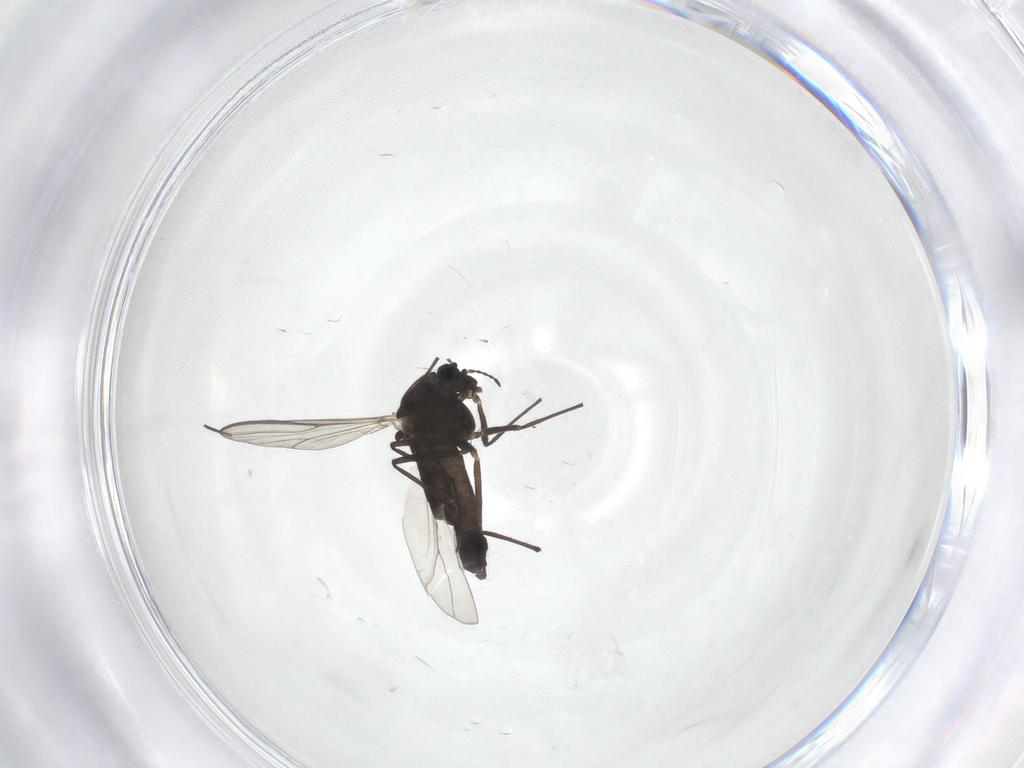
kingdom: Animalia
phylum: Arthropoda
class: Insecta
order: Diptera
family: Chironomidae
